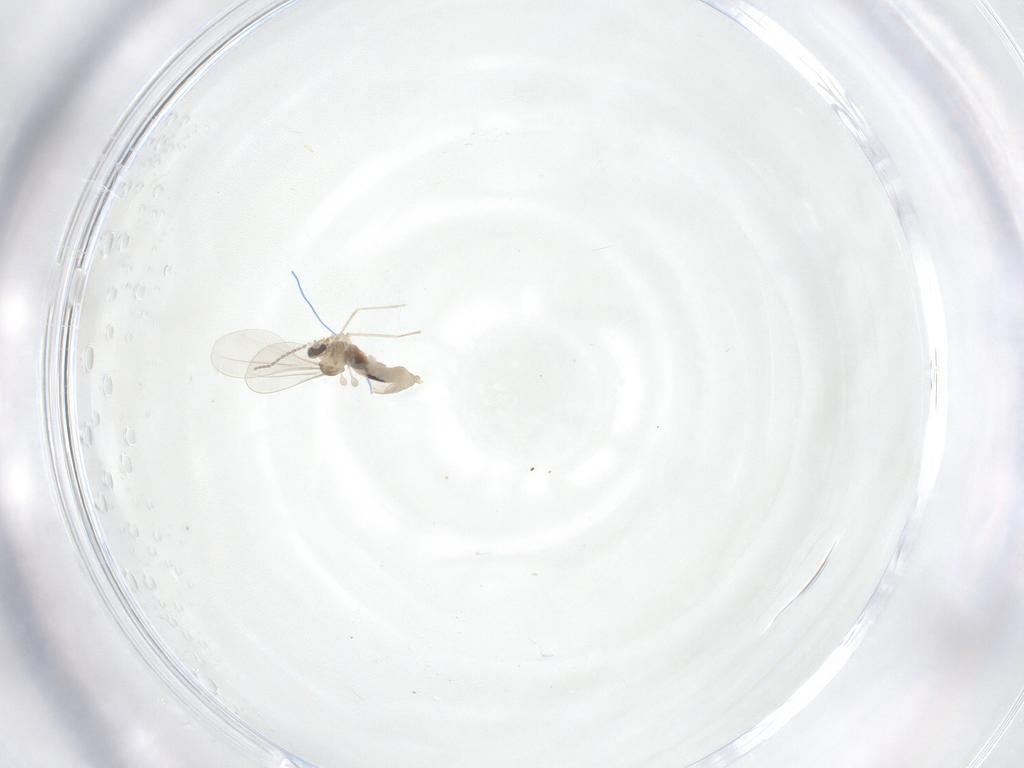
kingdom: Animalia
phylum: Arthropoda
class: Insecta
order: Diptera
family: Cecidomyiidae
